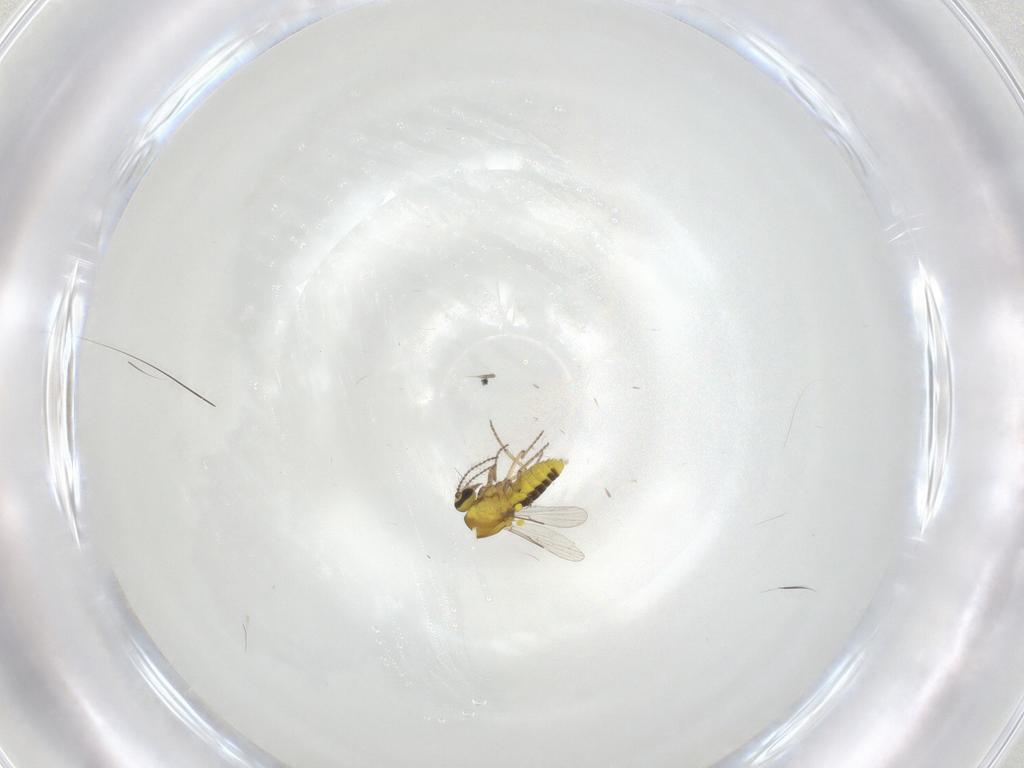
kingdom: Animalia
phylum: Arthropoda
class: Insecta
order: Diptera
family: Ceratopogonidae
